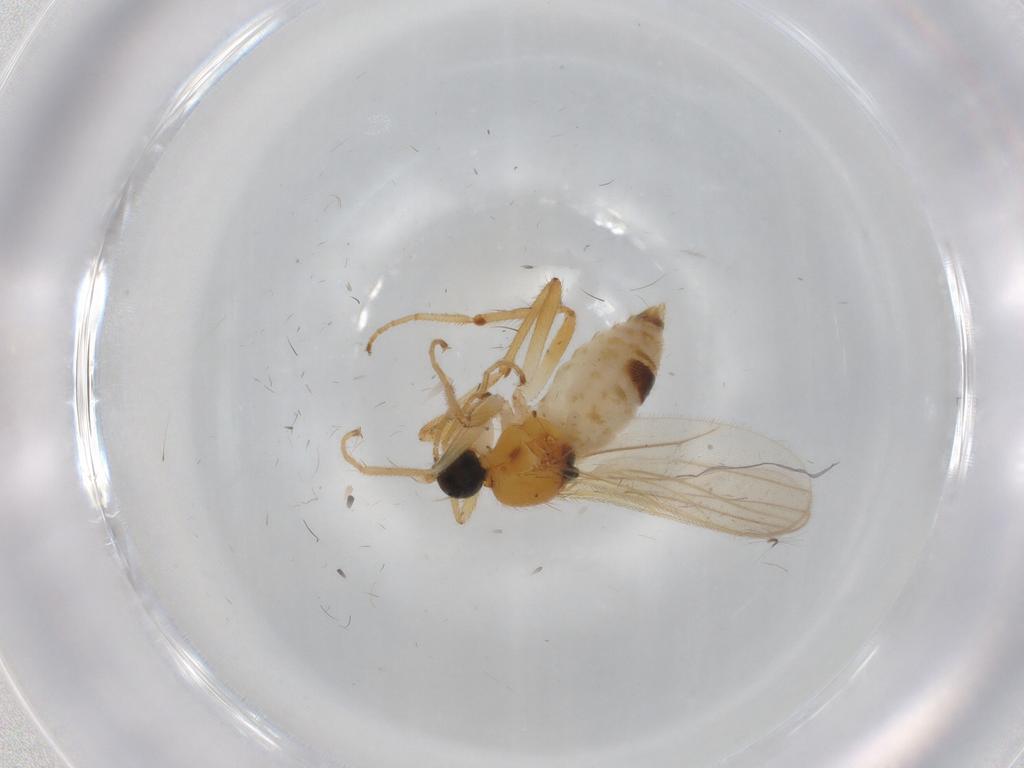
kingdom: Animalia
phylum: Arthropoda
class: Insecta
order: Diptera
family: Hybotidae
